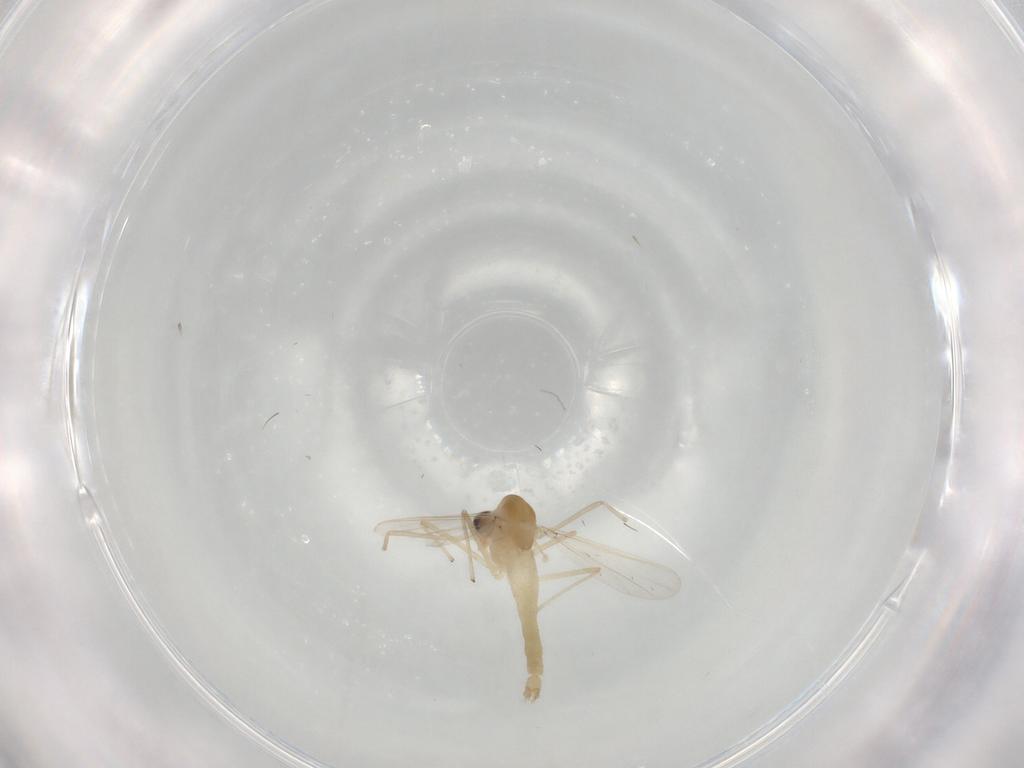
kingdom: Animalia
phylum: Arthropoda
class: Insecta
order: Diptera
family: Chironomidae
